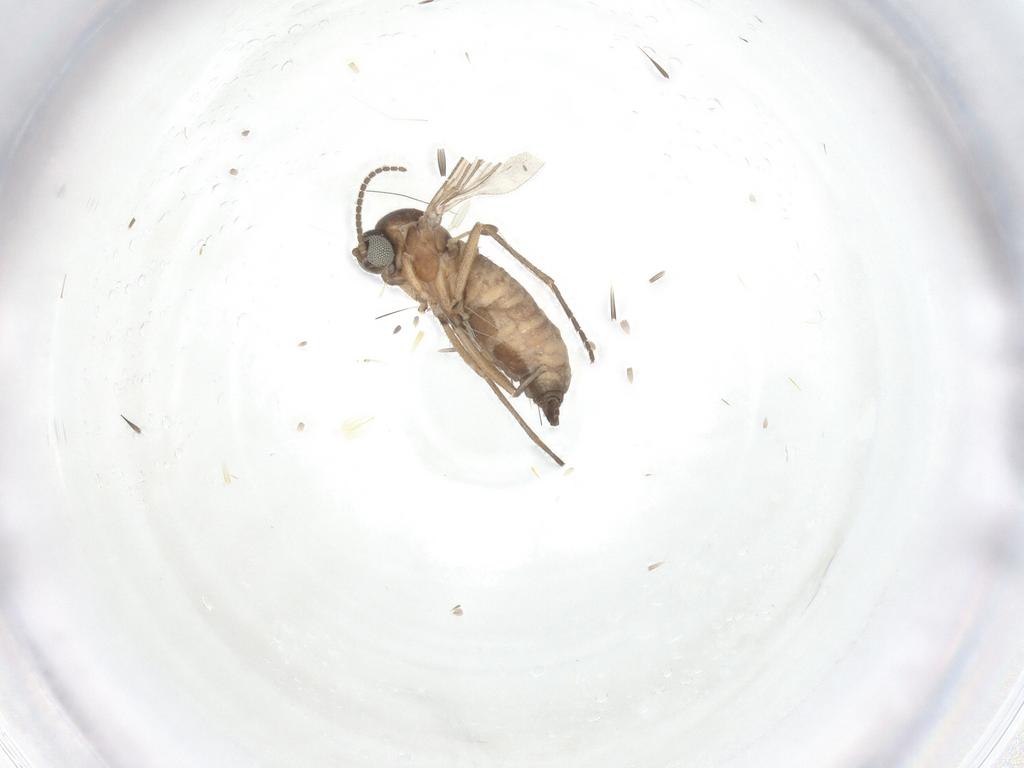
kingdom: Animalia
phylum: Arthropoda
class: Insecta
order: Diptera
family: Sciaridae
